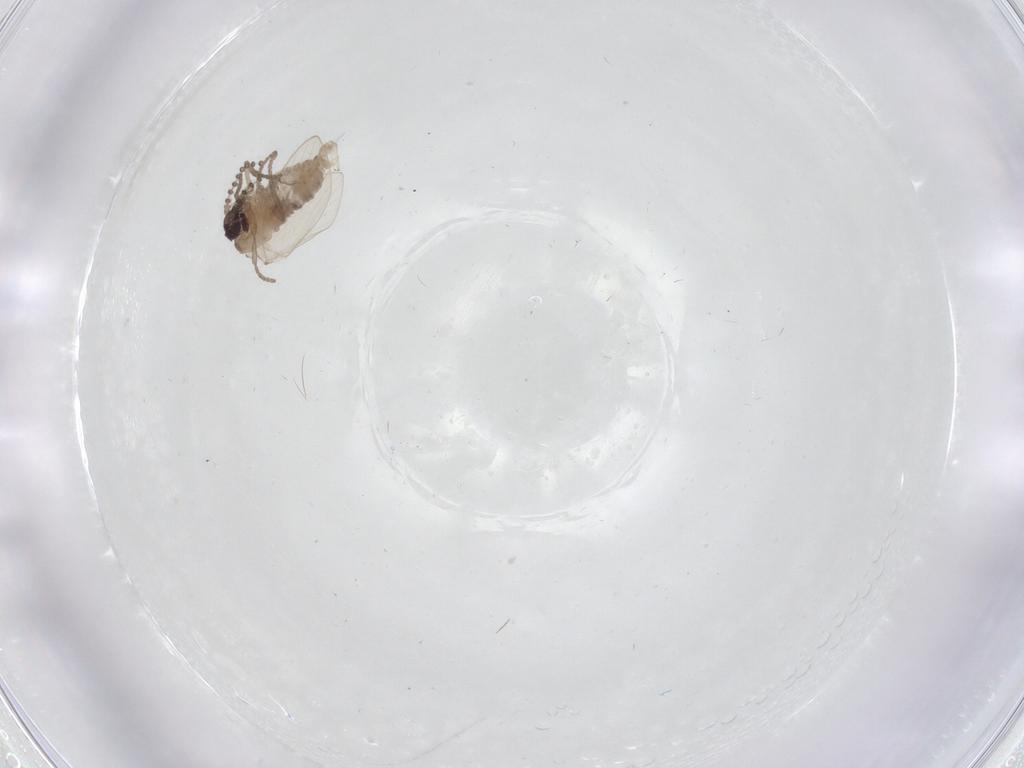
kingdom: Animalia
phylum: Arthropoda
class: Insecta
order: Diptera
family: Psychodidae
